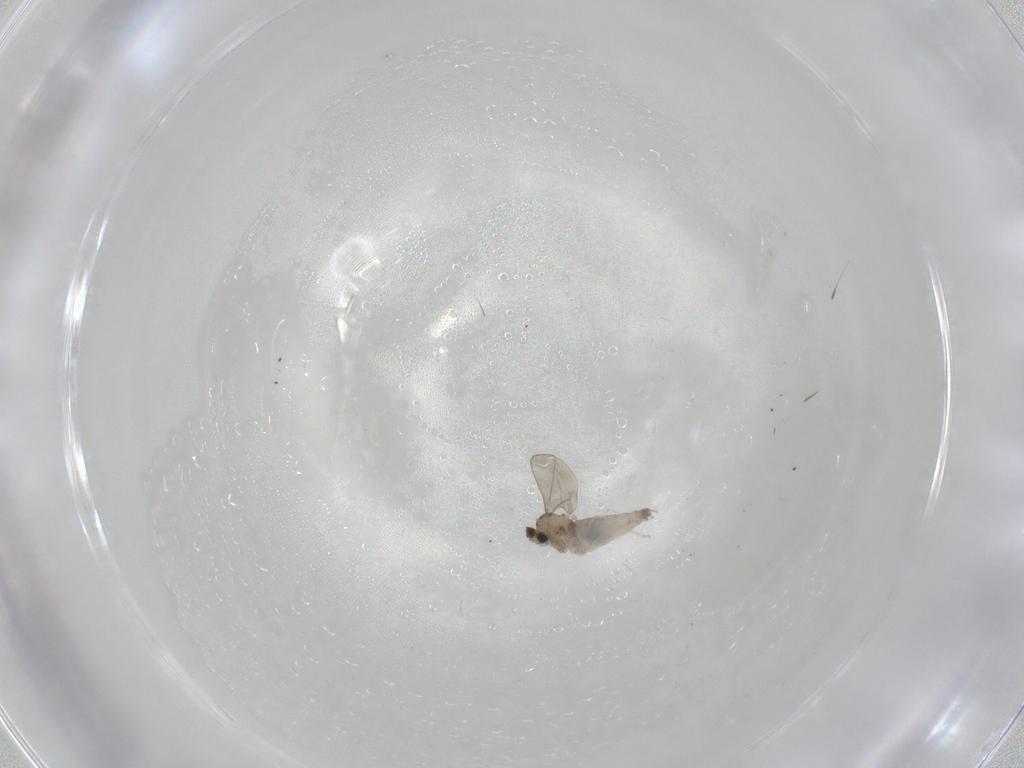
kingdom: Animalia
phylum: Arthropoda
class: Insecta
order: Diptera
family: Cecidomyiidae
